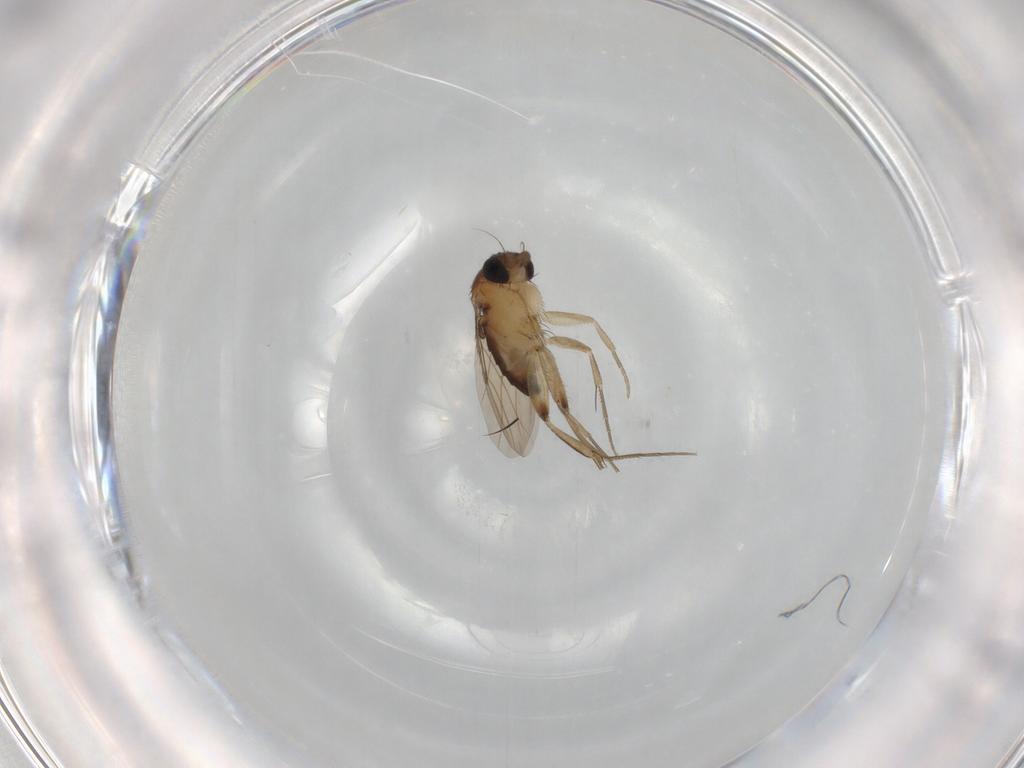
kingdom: Animalia
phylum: Arthropoda
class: Insecta
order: Diptera
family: Phoridae
